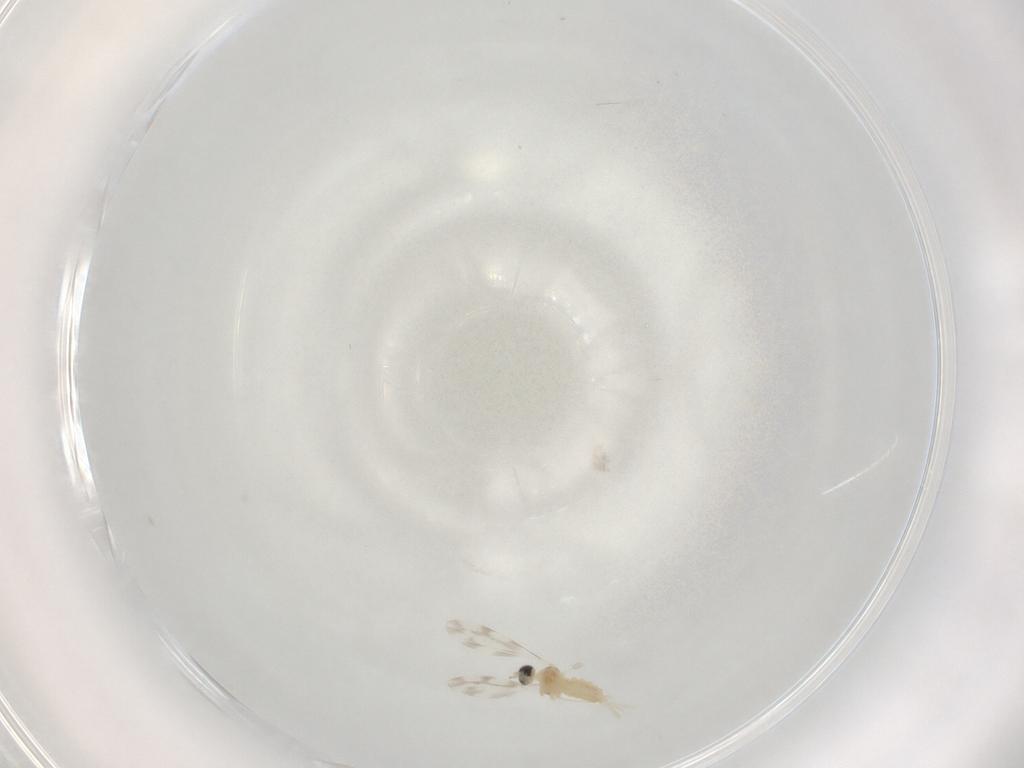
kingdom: Animalia
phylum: Arthropoda
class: Insecta
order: Diptera
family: Cecidomyiidae
